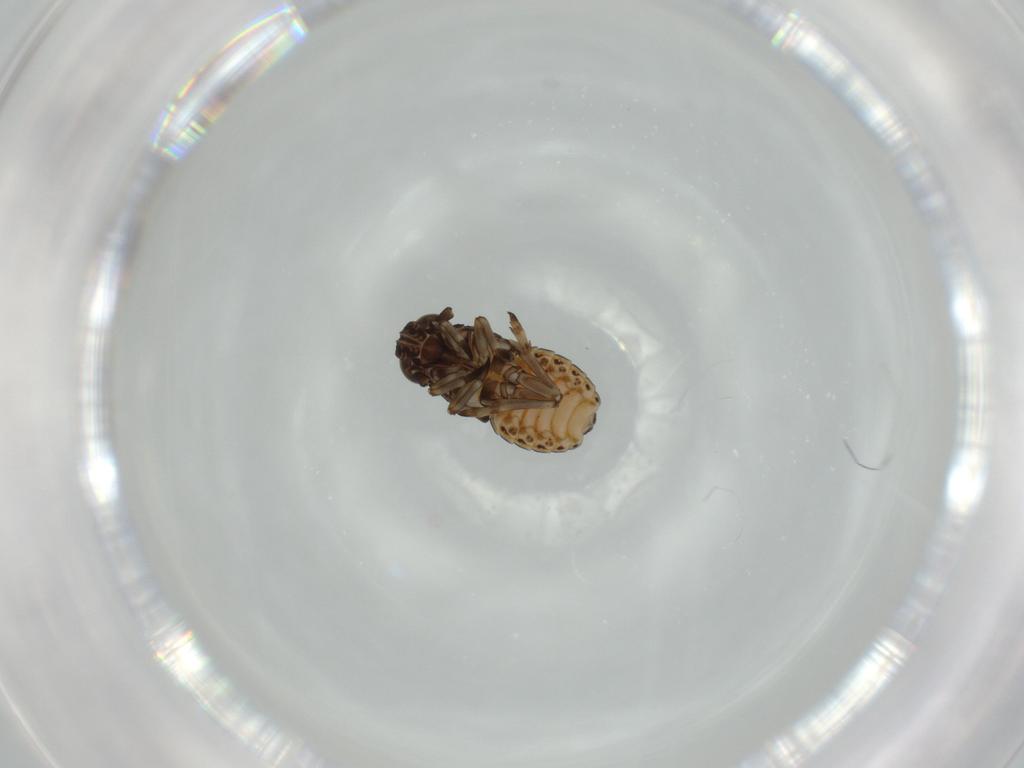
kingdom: Animalia
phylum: Arthropoda
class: Insecta
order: Hemiptera
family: Delphacidae
